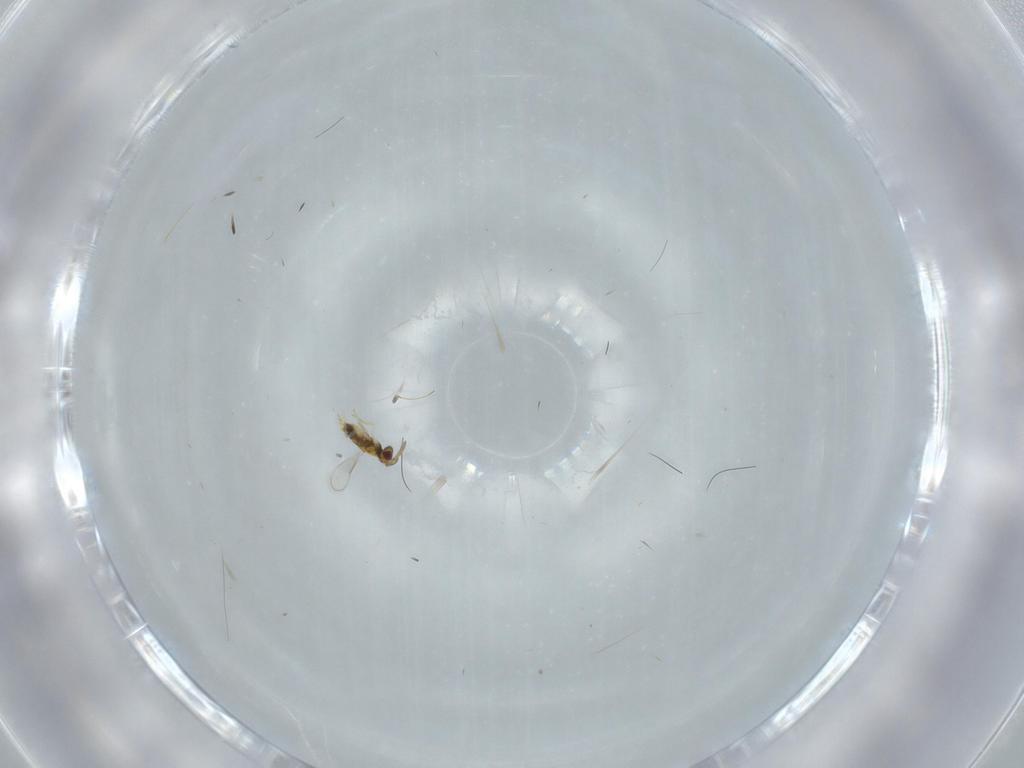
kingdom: Animalia
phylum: Arthropoda
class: Insecta
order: Hymenoptera
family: Aphelinidae
